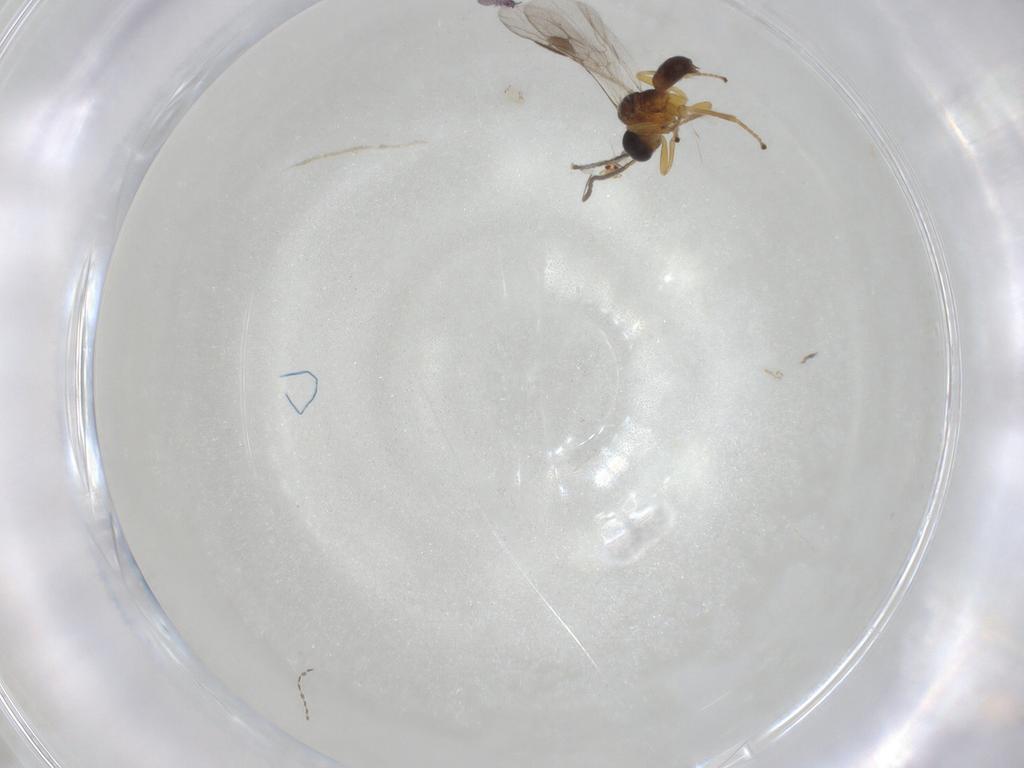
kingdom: Animalia
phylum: Arthropoda
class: Insecta
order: Hymenoptera
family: Tiphiidae
